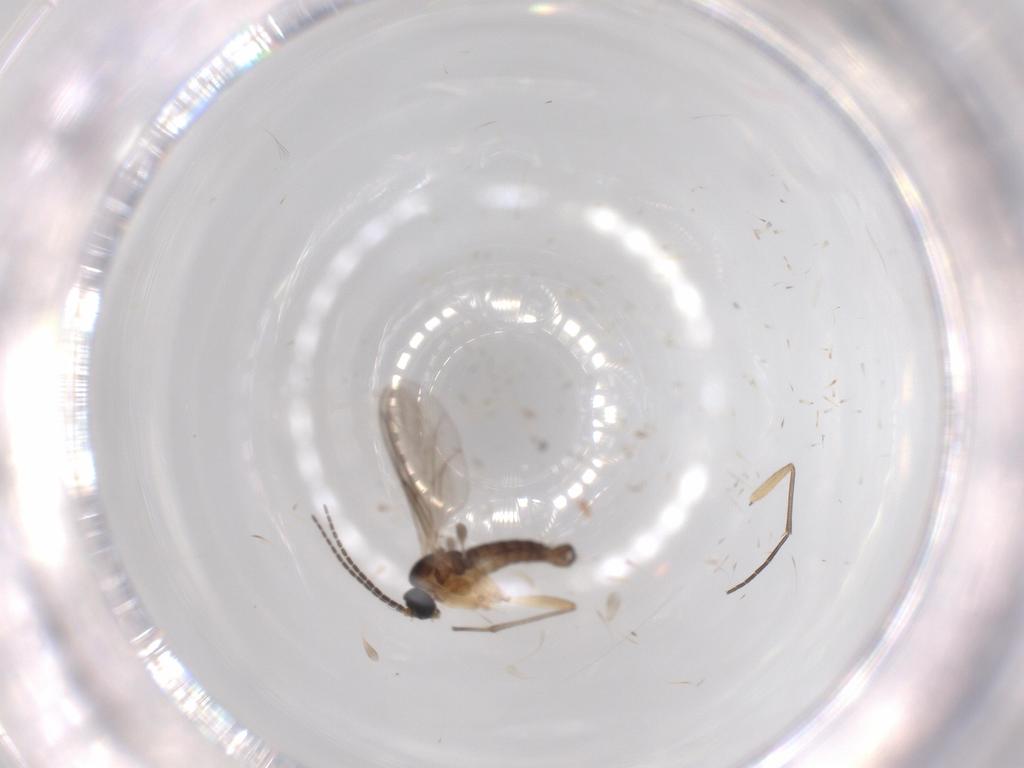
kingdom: Animalia
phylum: Arthropoda
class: Insecta
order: Diptera
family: Sciaridae
